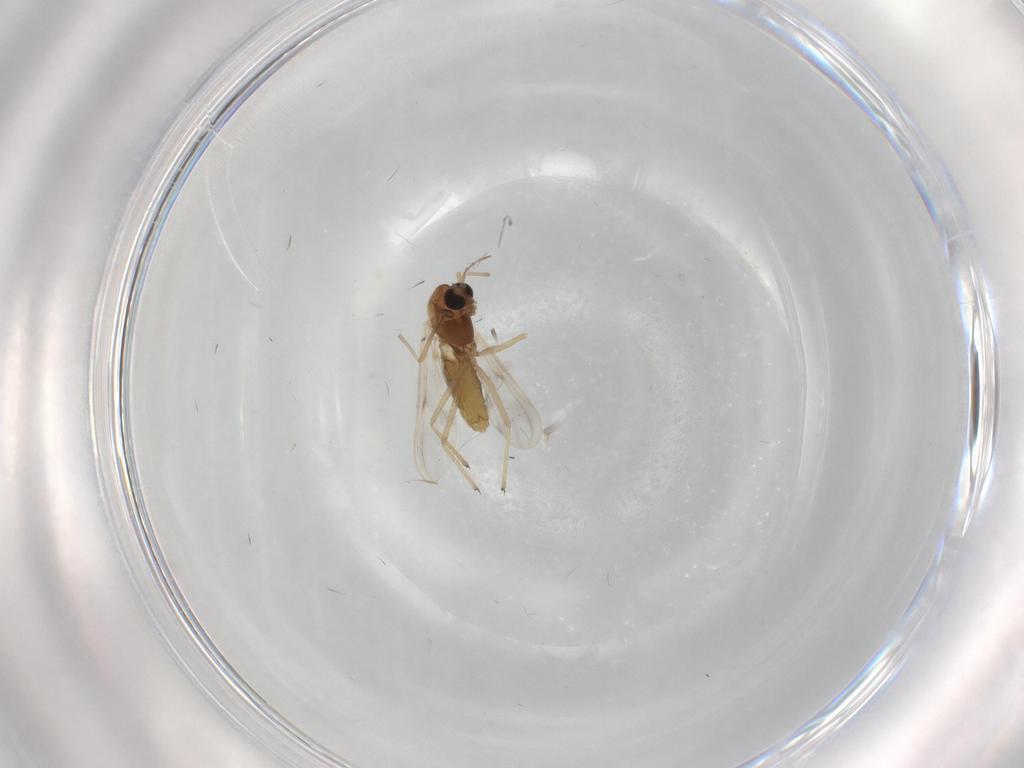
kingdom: Animalia
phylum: Arthropoda
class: Insecta
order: Diptera
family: Chironomidae
